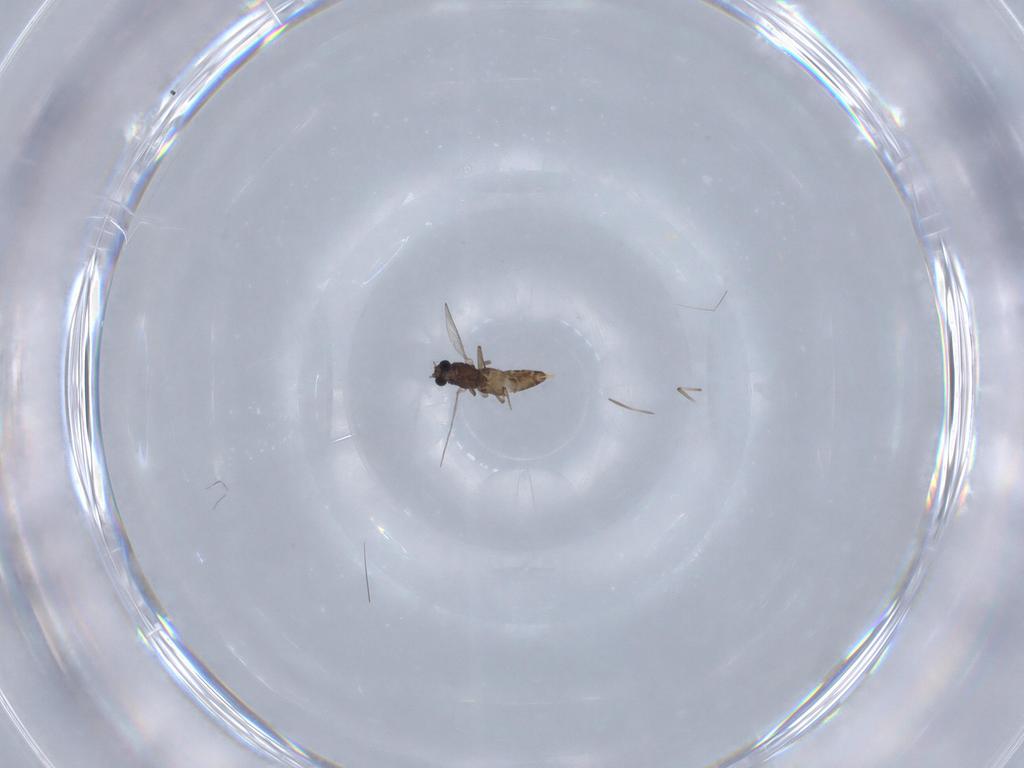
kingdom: Animalia
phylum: Arthropoda
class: Insecta
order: Diptera
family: Chironomidae
